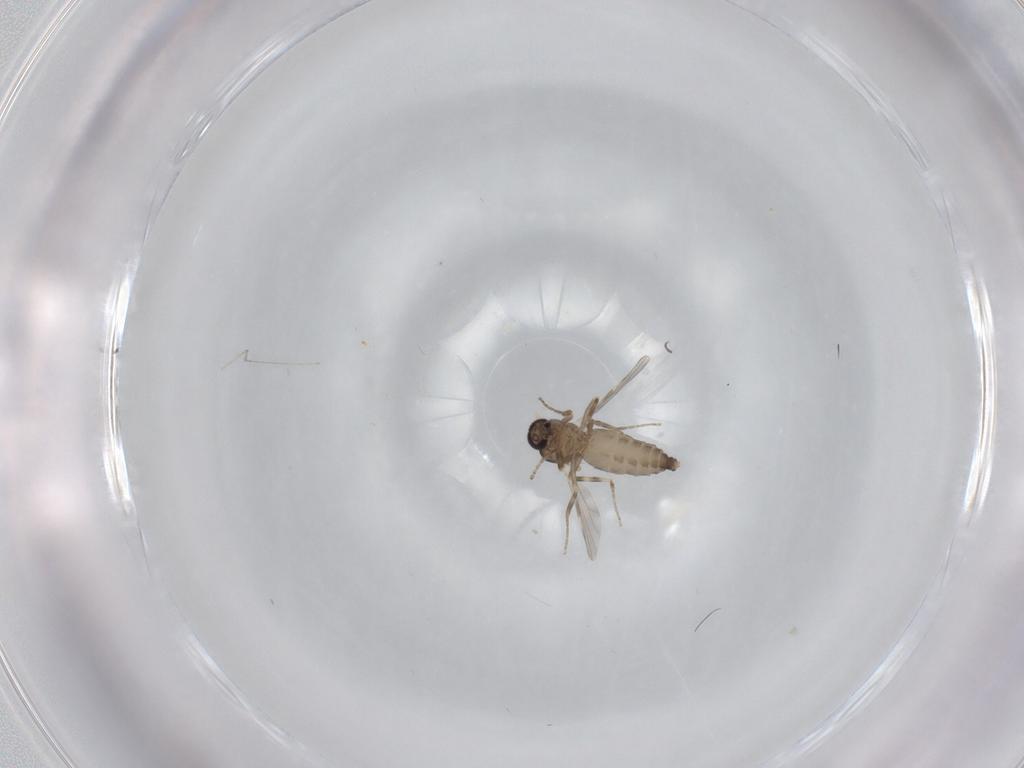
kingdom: Animalia
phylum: Arthropoda
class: Insecta
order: Diptera
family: Ceratopogonidae
